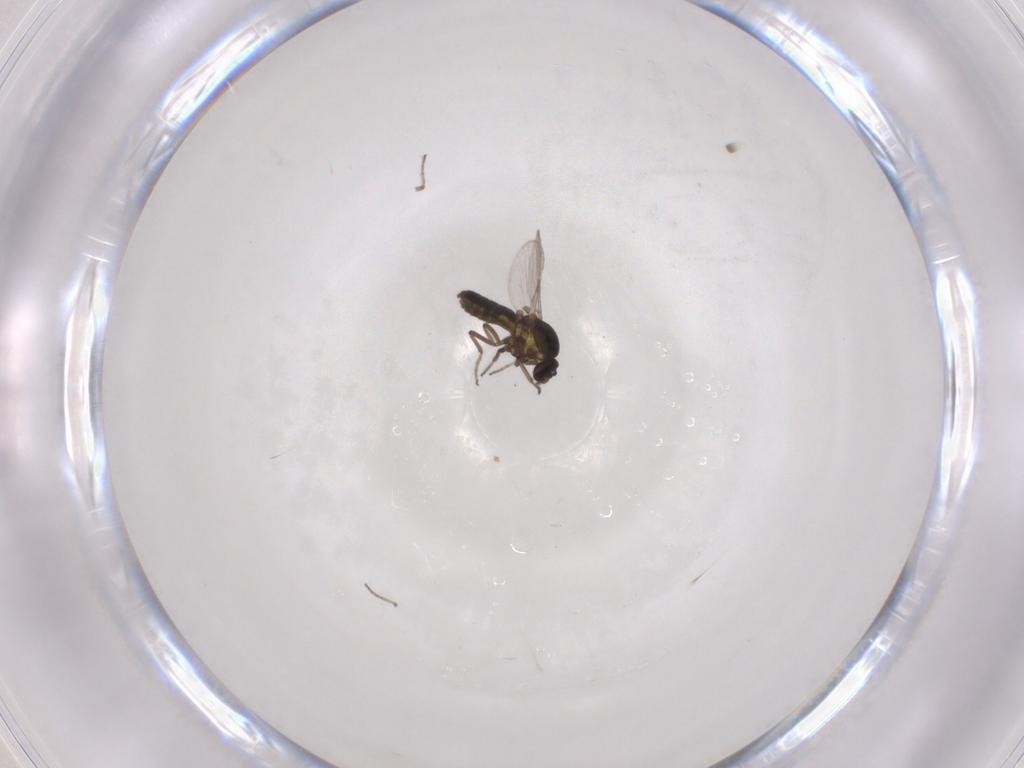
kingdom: Animalia
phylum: Arthropoda
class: Insecta
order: Diptera
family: Ceratopogonidae
